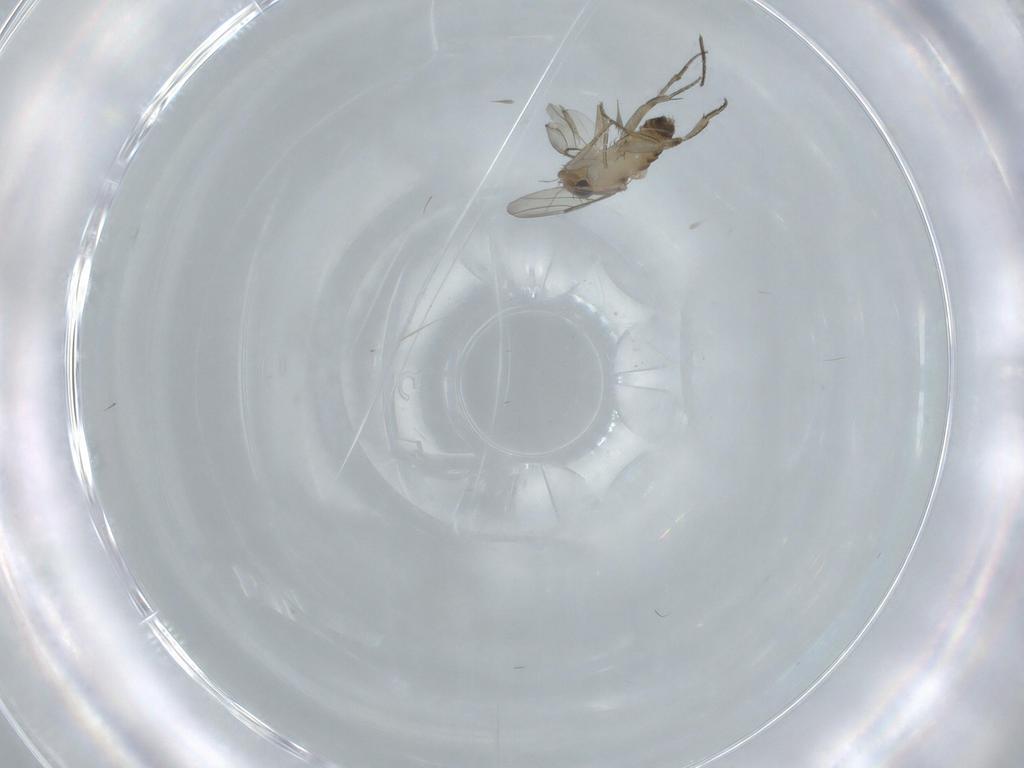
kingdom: Animalia
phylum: Arthropoda
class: Insecta
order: Diptera
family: Phoridae
